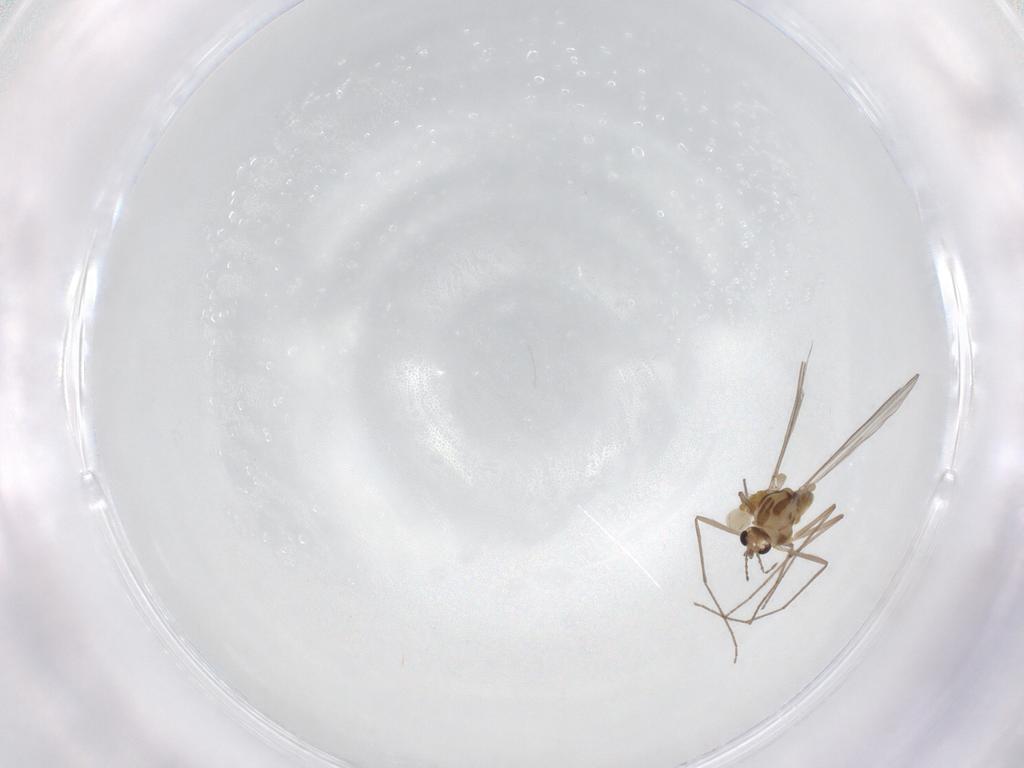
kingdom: Animalia
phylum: Arthropoda
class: Insecta
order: Diptera
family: Chironomidae
